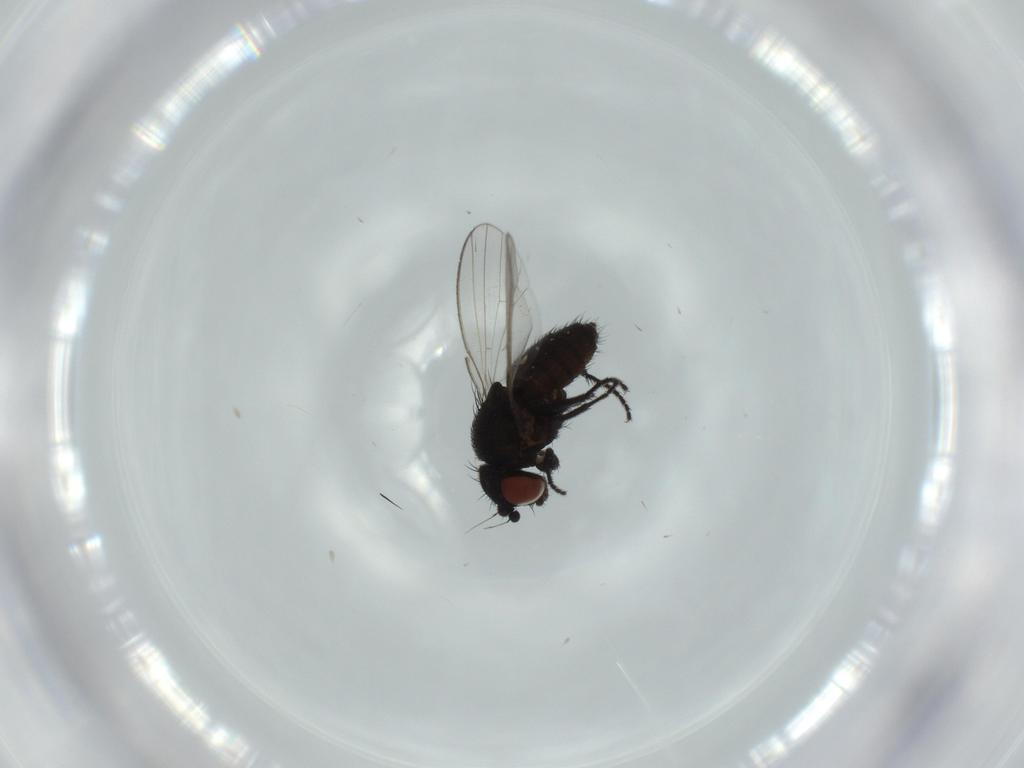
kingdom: Animalia
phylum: Arthropoda
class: Insecta
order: Diptera
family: Milichiidae
